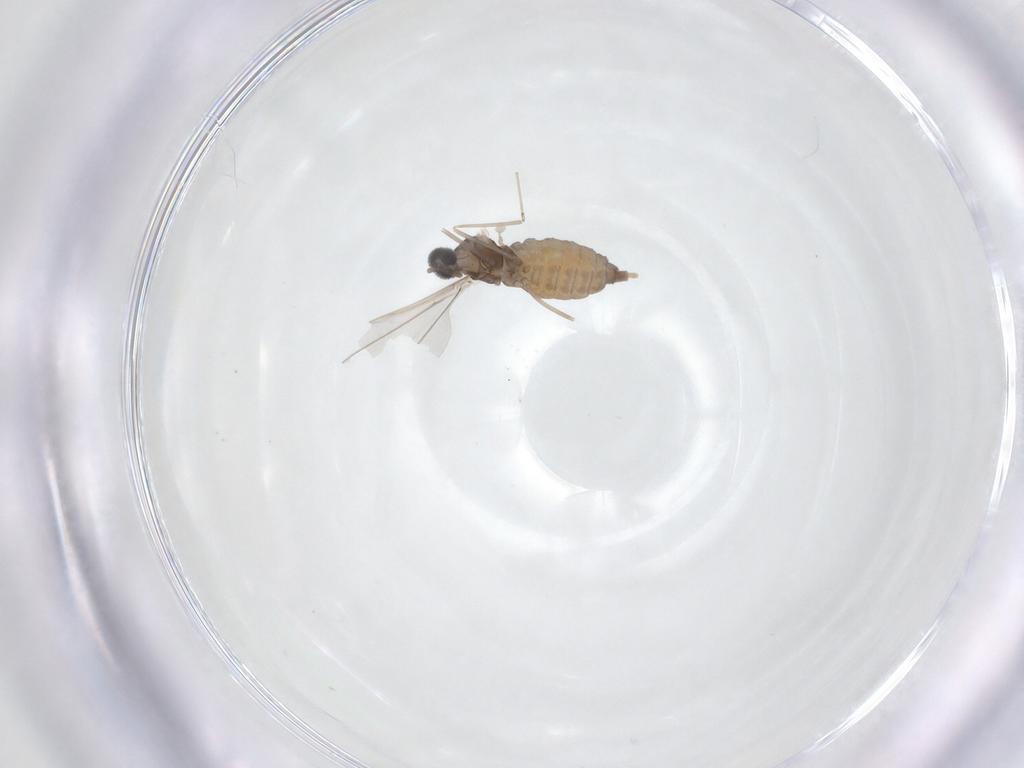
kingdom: Animalia
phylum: Arthropoda
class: Insecta
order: Diptera
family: Cecidomyiidae
